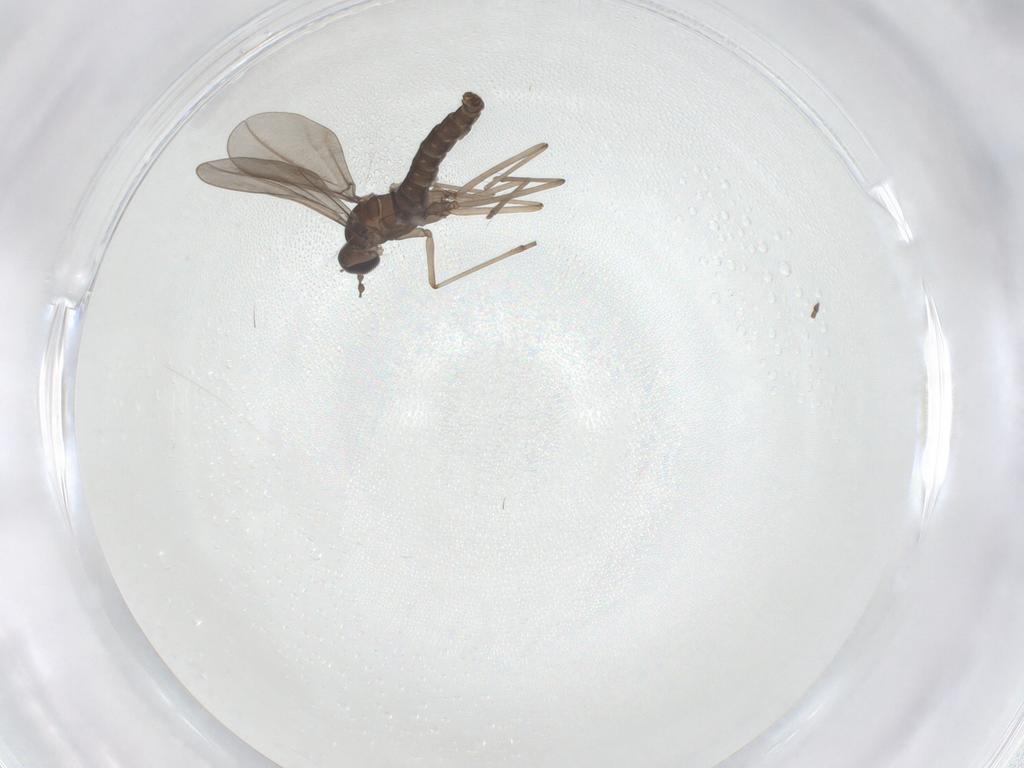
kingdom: Animalia
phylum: Arthropoda
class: Insecta
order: Diptera
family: Cecidomyiidae
